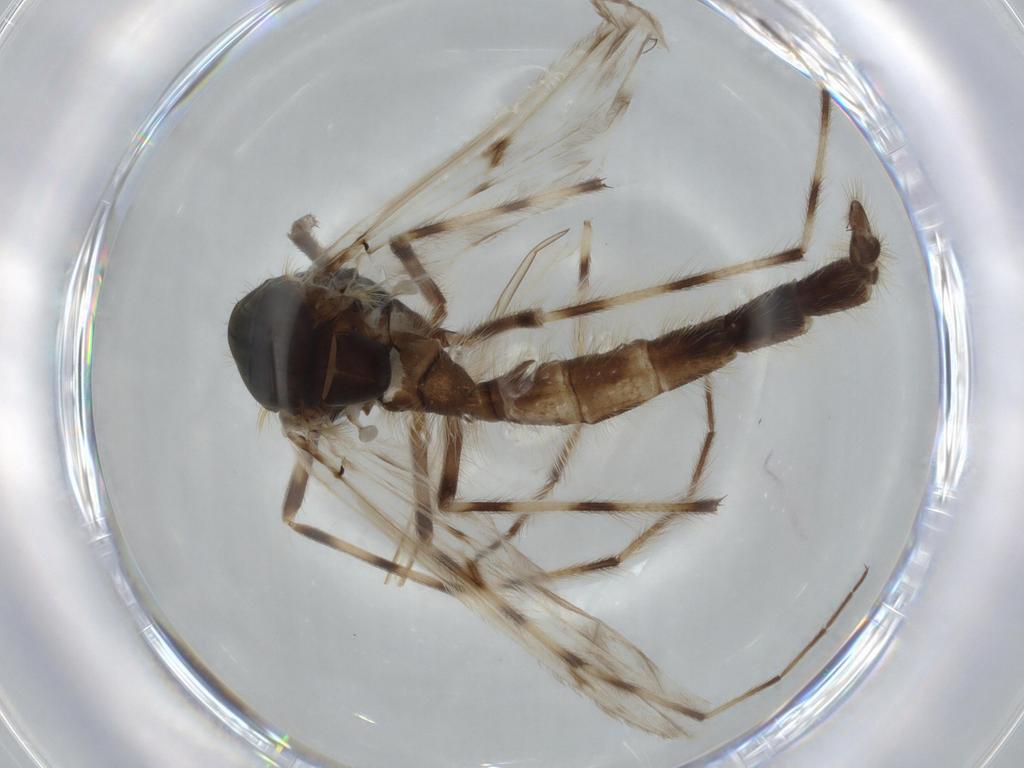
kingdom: Animalia
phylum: Arthropoda
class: Insecta
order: Diptera
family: Chironomidae
